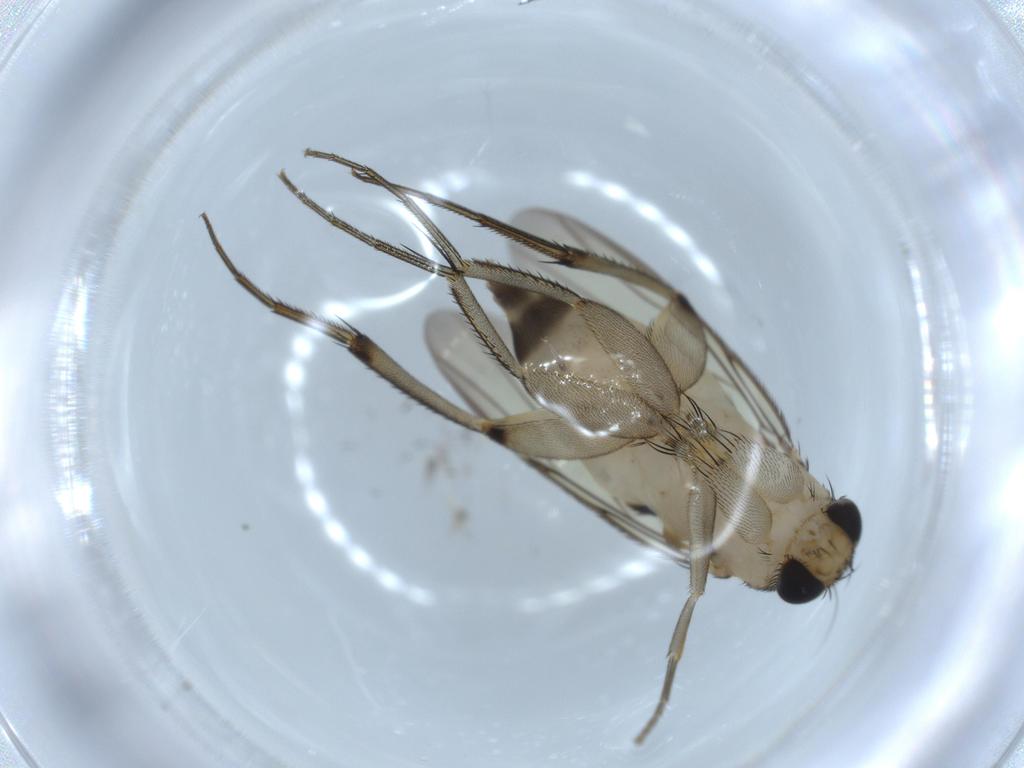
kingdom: Animalia
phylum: Arthropoda
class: Insecta
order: Diptera
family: Phoridae
